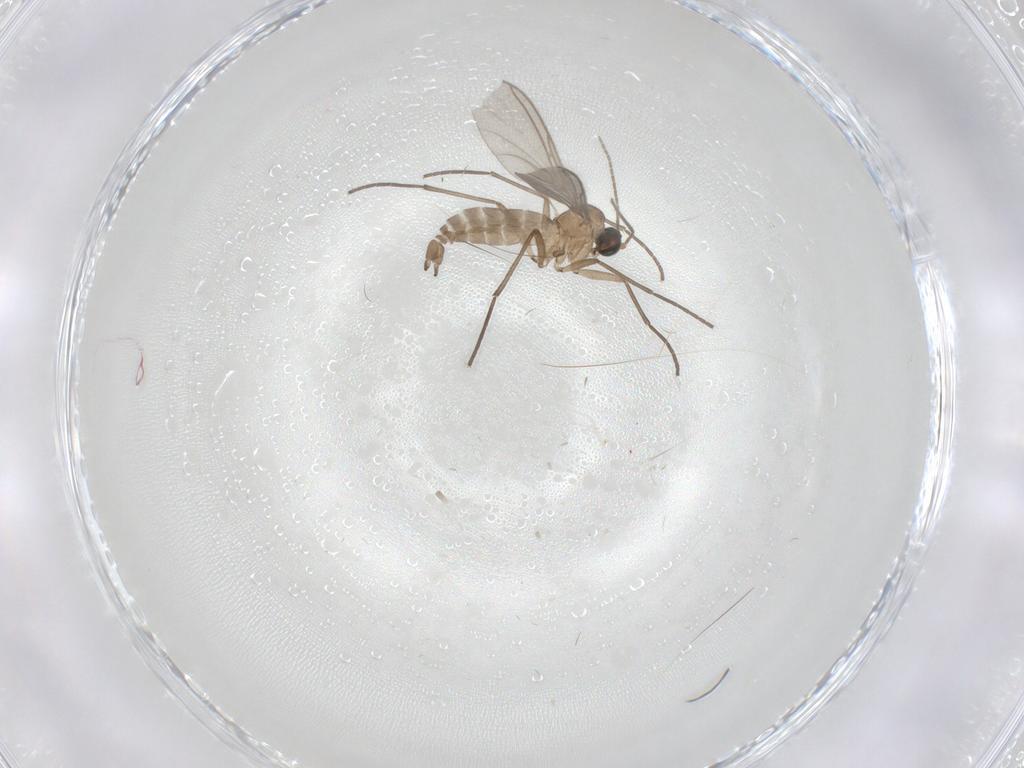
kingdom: Animalia
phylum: Arthropoda
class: Insecta
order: Diptera
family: Sciaridae
